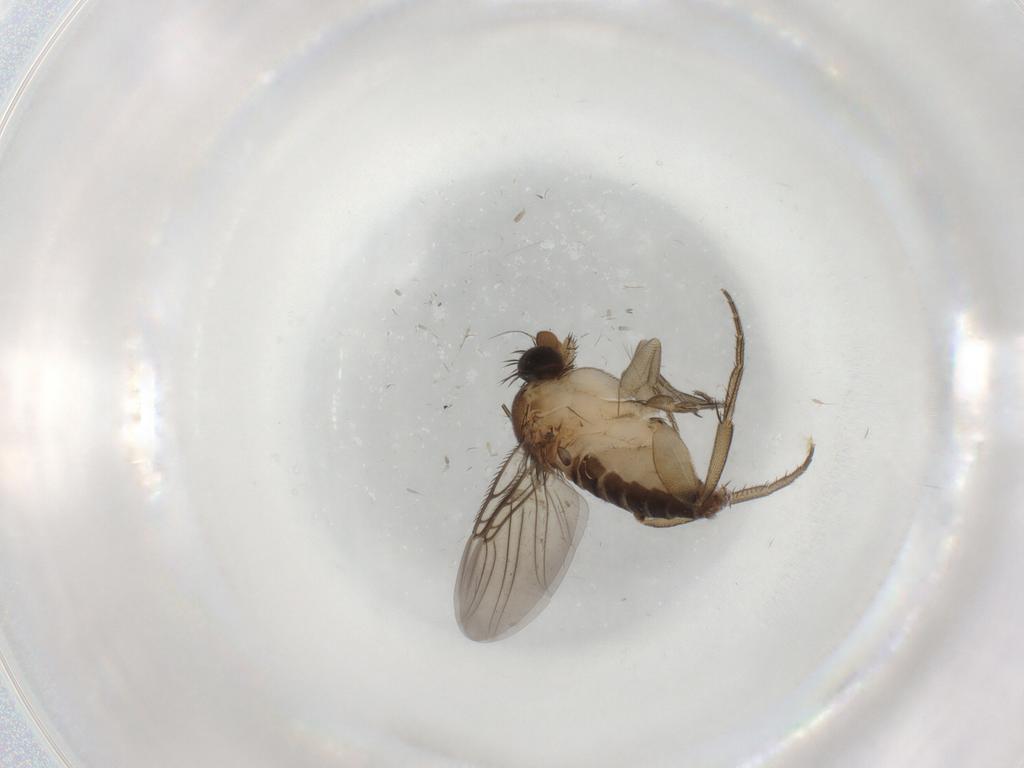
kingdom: Animalia
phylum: Arthropoda
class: Insecta
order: Diptera
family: Phoridae
